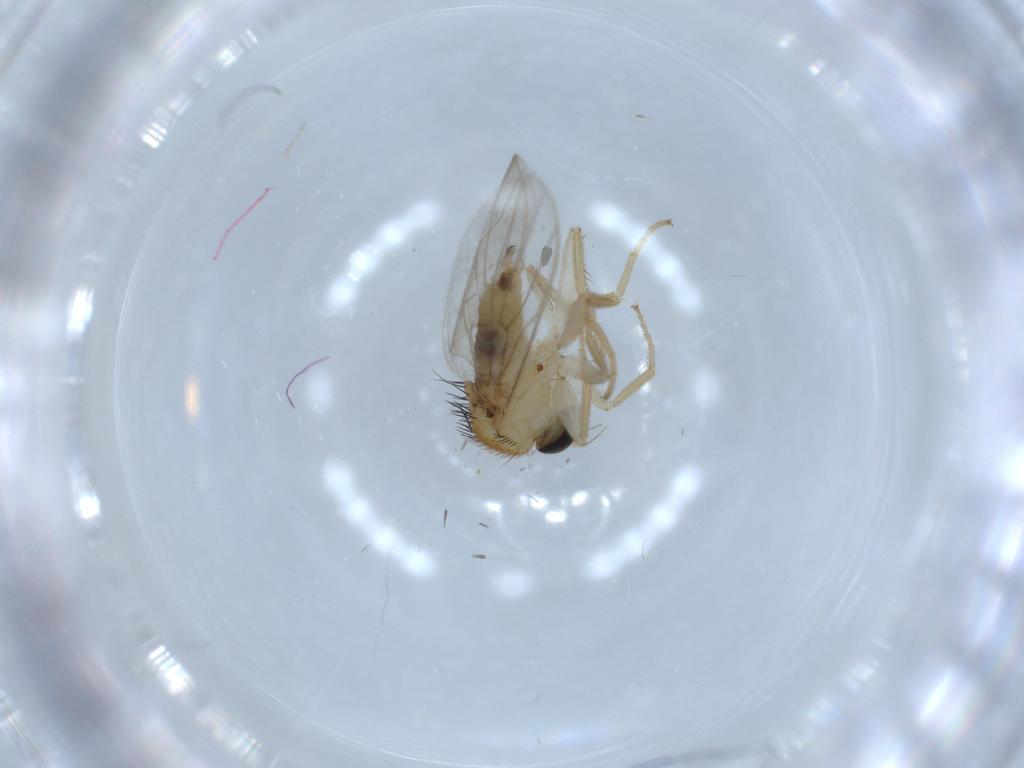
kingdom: Animalia
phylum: Arthropoda
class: Insecta
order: Diptera
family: Hybotidae
